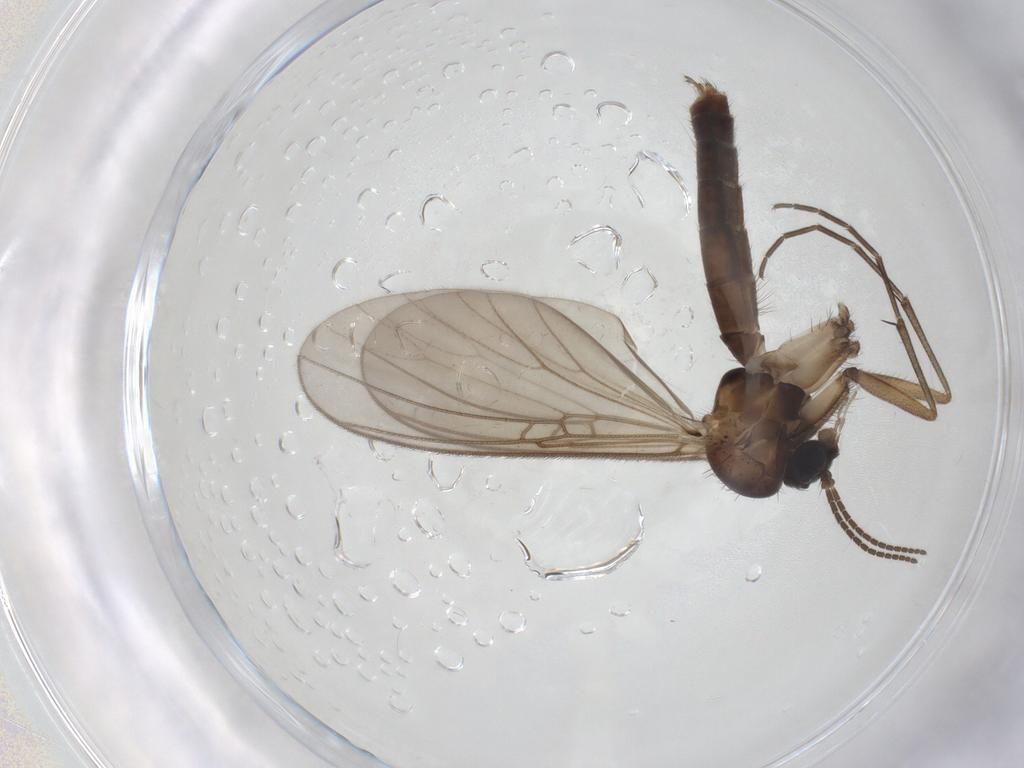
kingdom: Animalia
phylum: Arthropoda
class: Insecta
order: Diptera
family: Mycetophilidae
